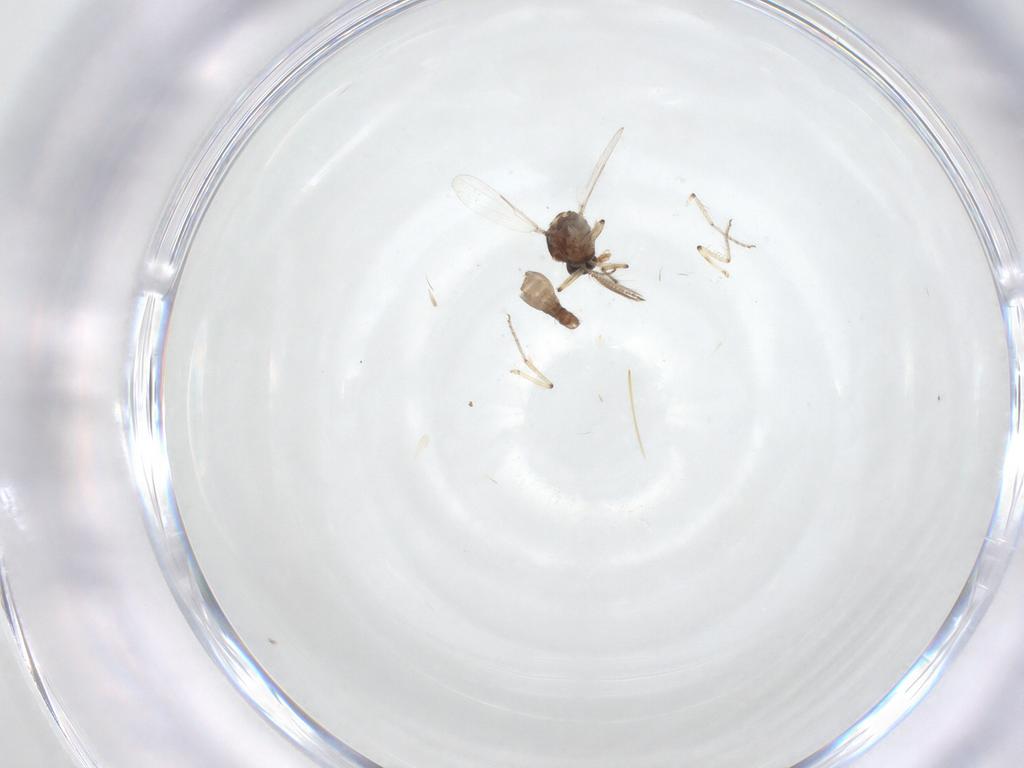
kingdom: Animalia
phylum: Arthropoda
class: Insecta
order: Diptera
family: Ceratopogonidae
